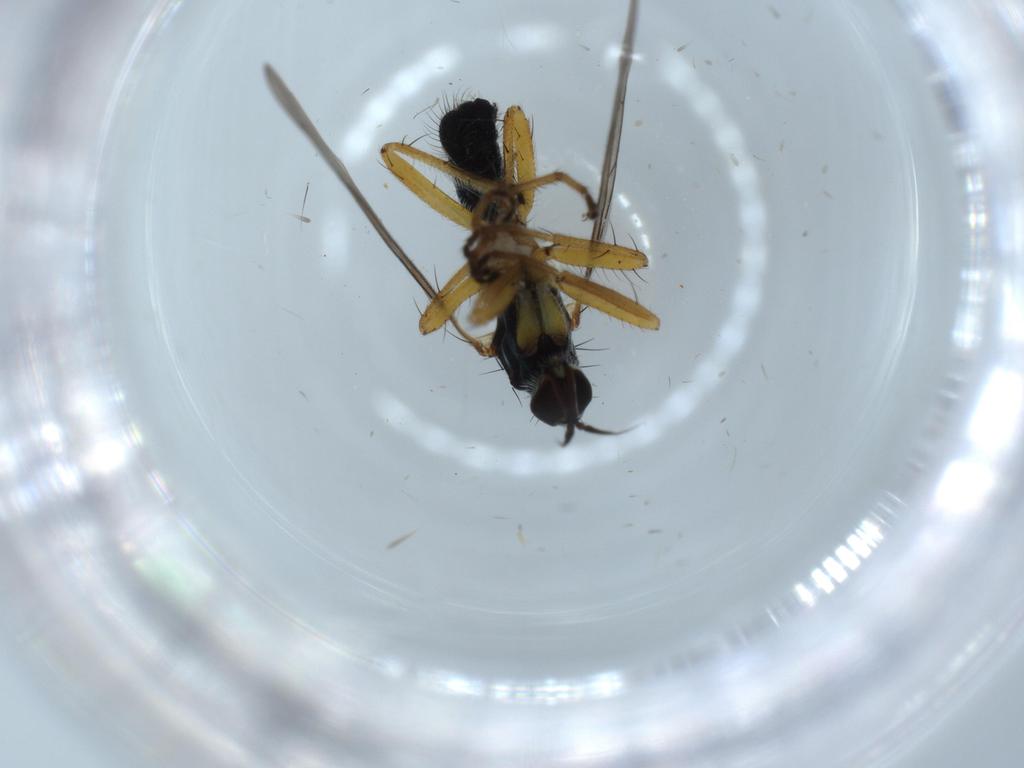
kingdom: Animalia
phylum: Arthropoda
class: Insecta
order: Diptera
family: Hybotidae
